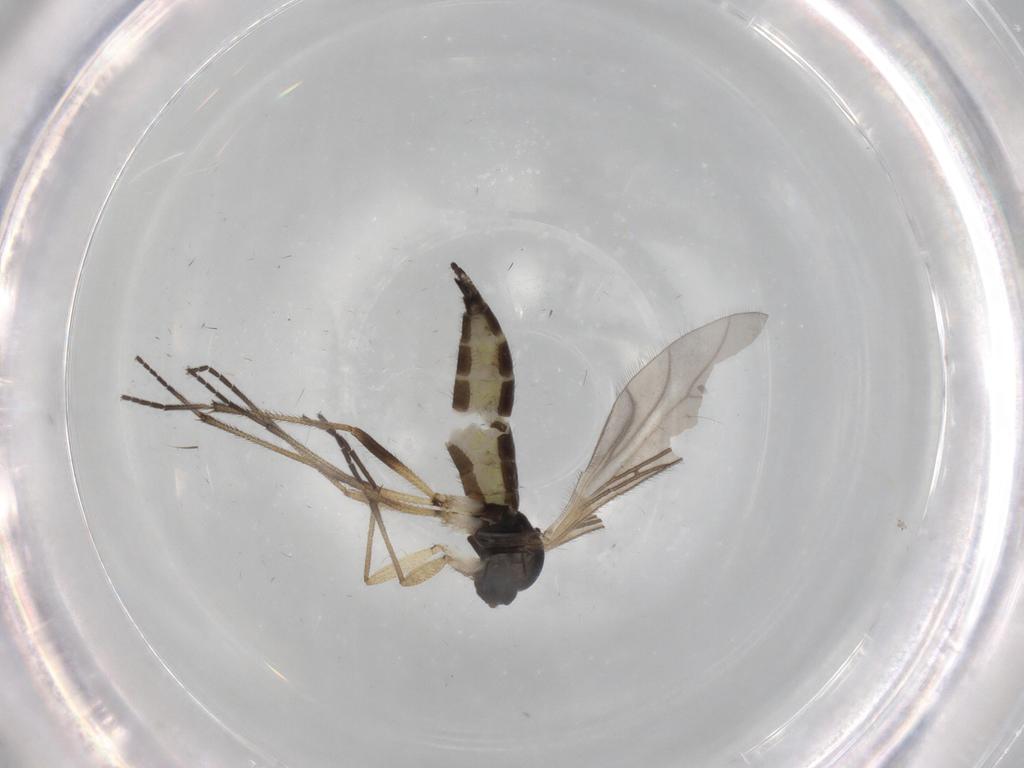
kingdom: Animalia
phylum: Arthropoda
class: Insecta
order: Diptera
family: Sciaridae
